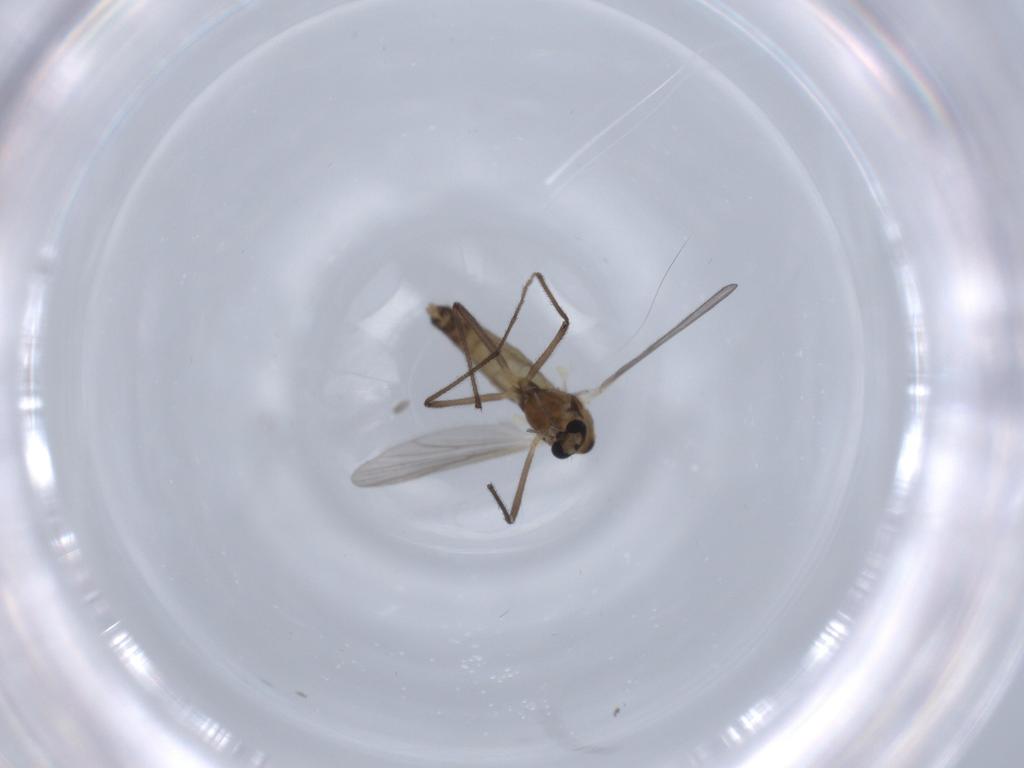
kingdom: Animalia
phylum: Arthropoda
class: Insecta
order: Diptera
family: Chironomidae
